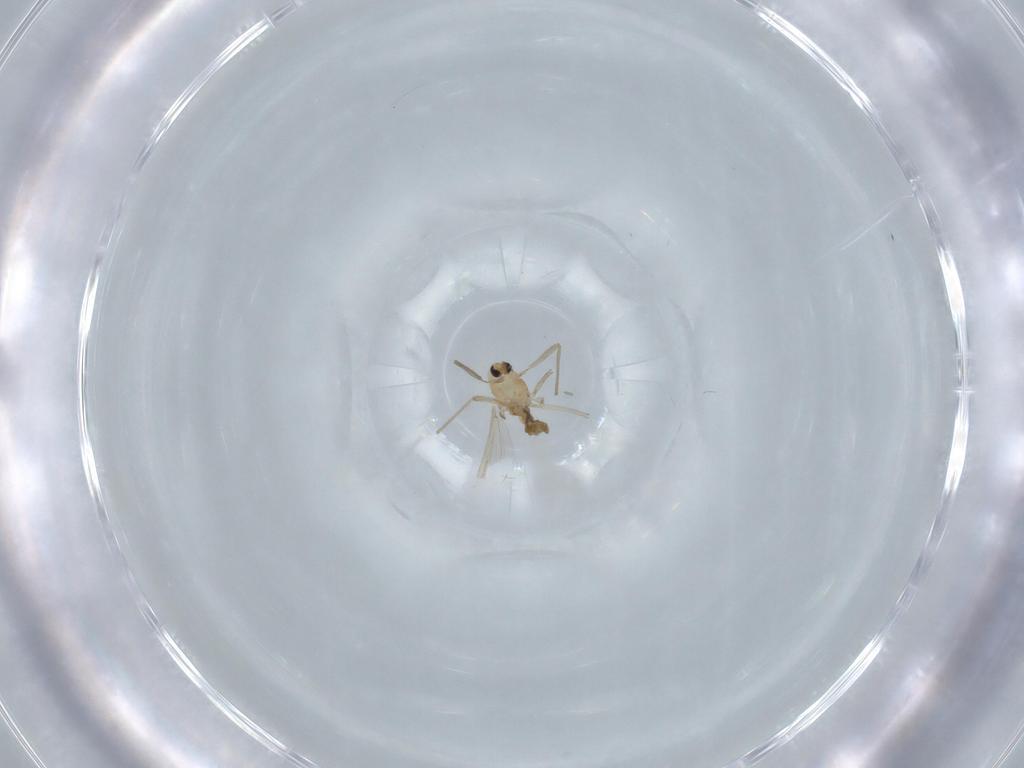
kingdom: Animalia
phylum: Arthropoda
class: Insecta
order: Diptera
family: Chironomidae
